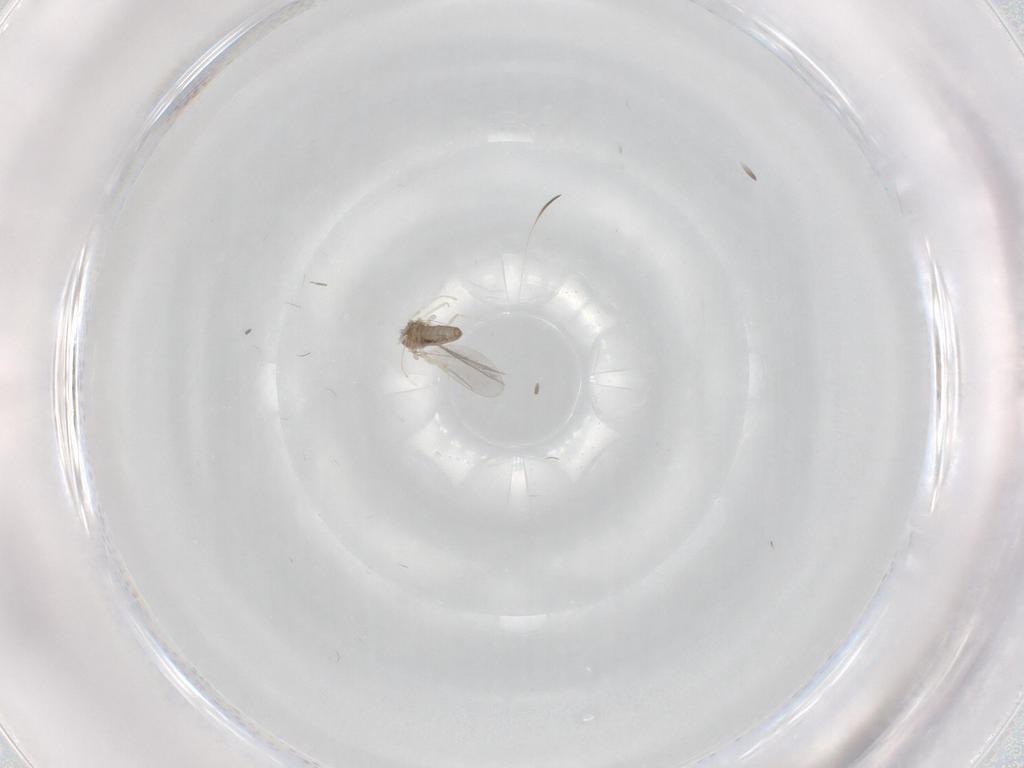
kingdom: Animalia
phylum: Arthropoda
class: Insecta
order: Diptera
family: Cecidomyiidae
